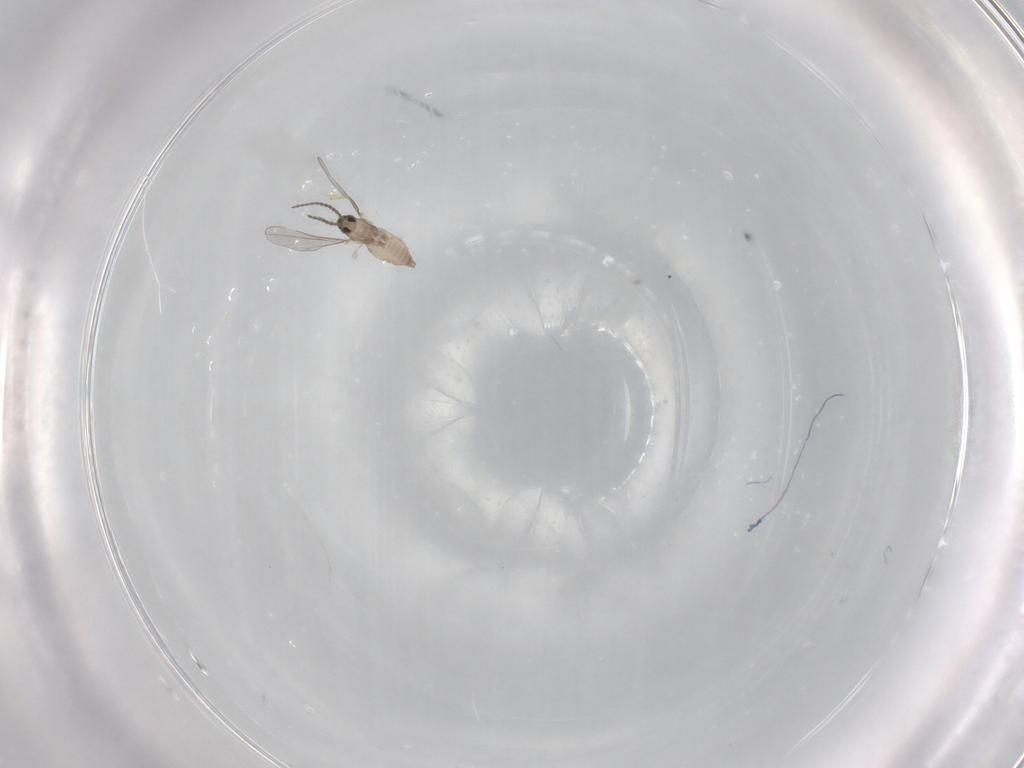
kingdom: Animalia
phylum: Arthropoda
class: Insecta
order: Diptera
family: Cecidomyiidae
